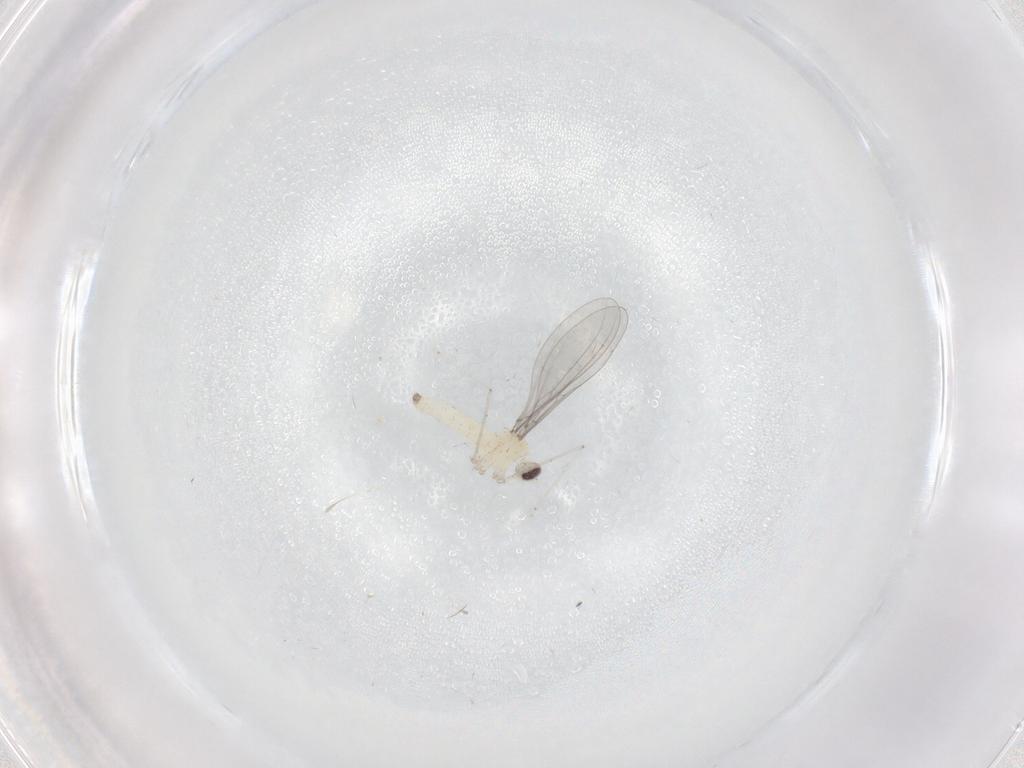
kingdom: Animalia
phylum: Arthropoda
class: Insecta
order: Diptera
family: Cecidomyiidae
